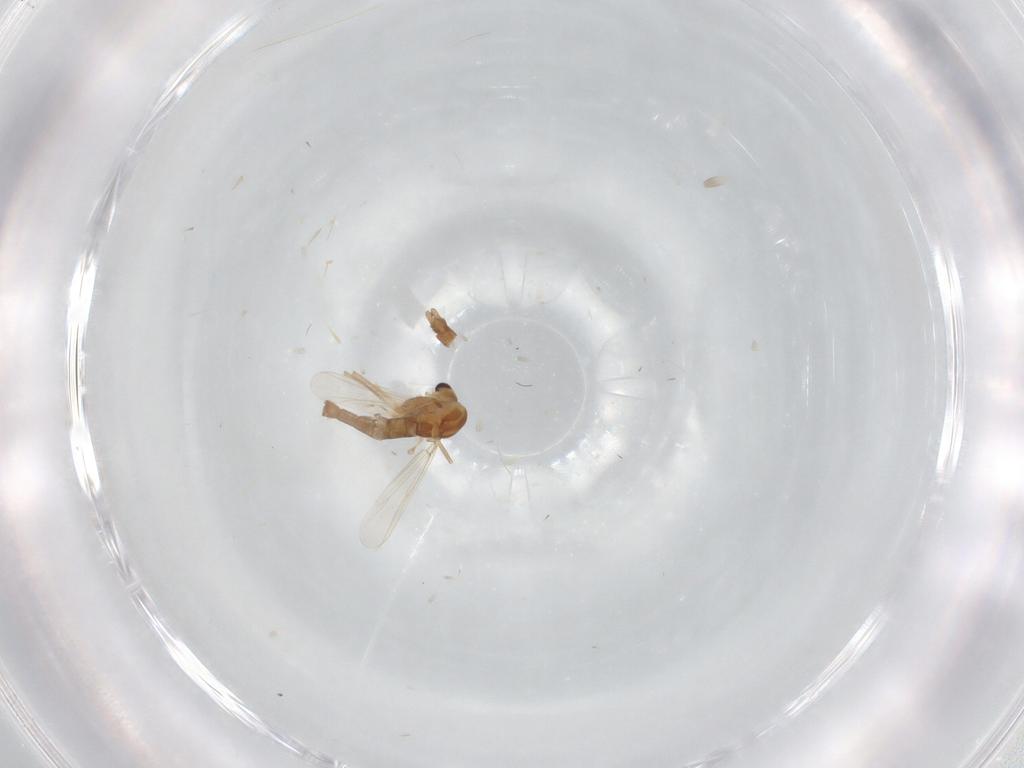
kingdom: Animalia
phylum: Arthropoda
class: Insecta
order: Diptera
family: Chironomidae
